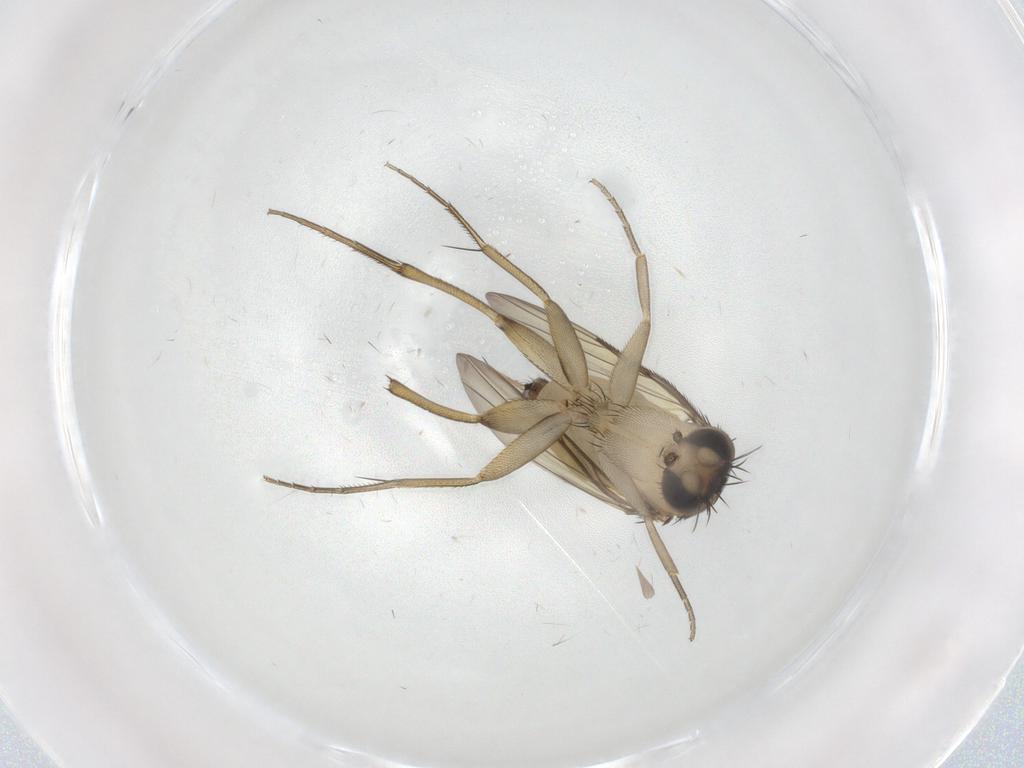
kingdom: Animalia
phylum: Arthropoda
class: Insecta
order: Diptera
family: Phoridae
